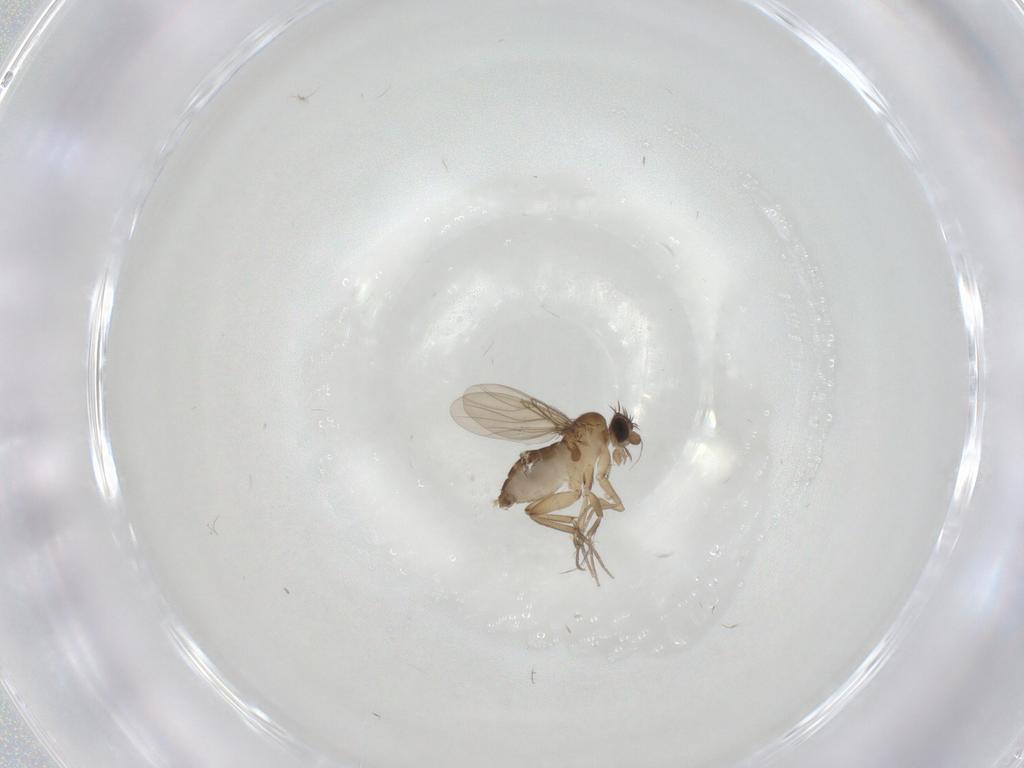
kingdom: Animalia
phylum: Arthropoda
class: Insecta
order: Diptera
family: Phoridae
